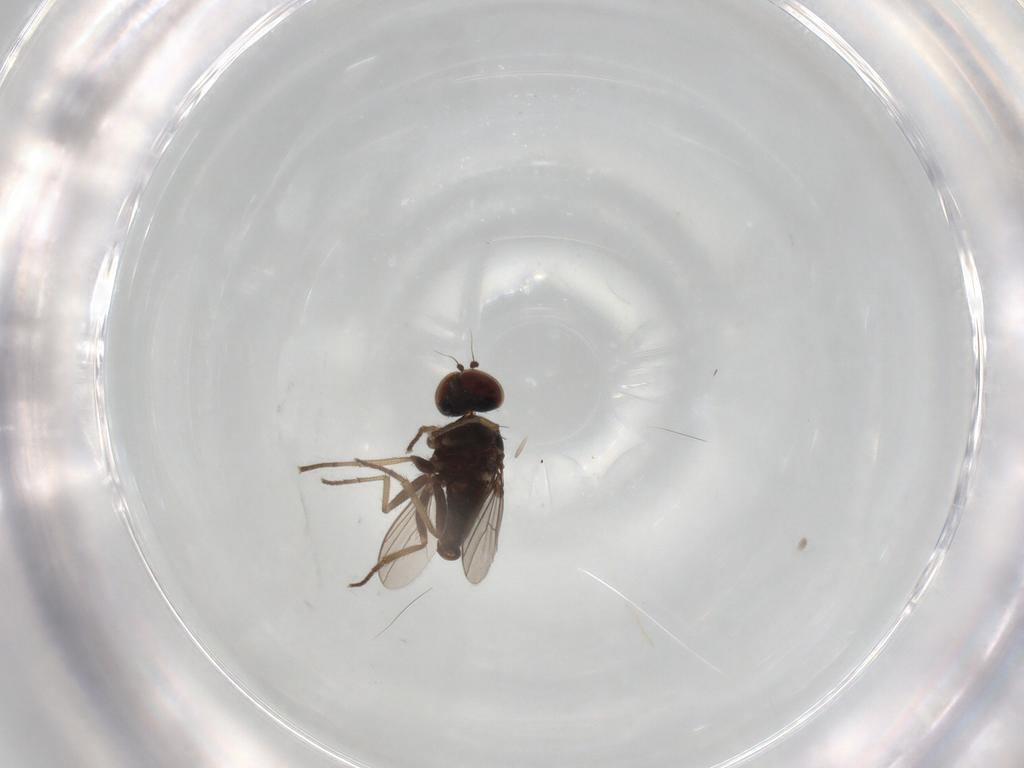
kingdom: Animalia
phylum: Arthropoda
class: Insecta
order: Diptera
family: Dolichopodidae
